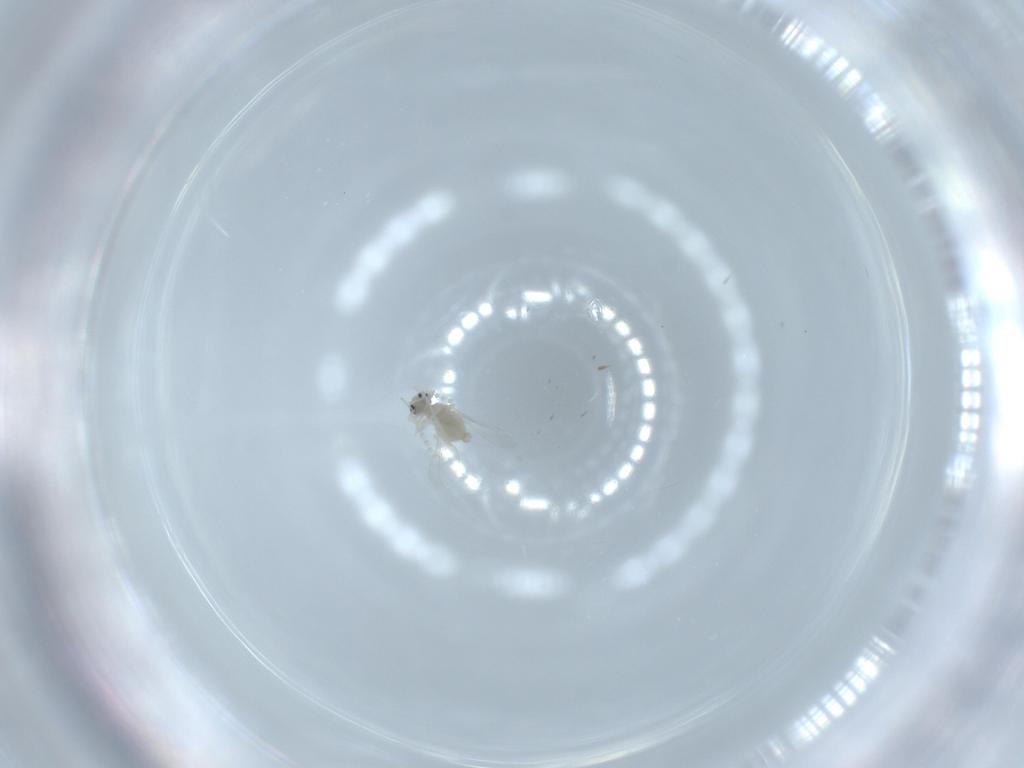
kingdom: Animalia
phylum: Arthropoda
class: Insecta
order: Diptera
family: Cecidomyiidae
